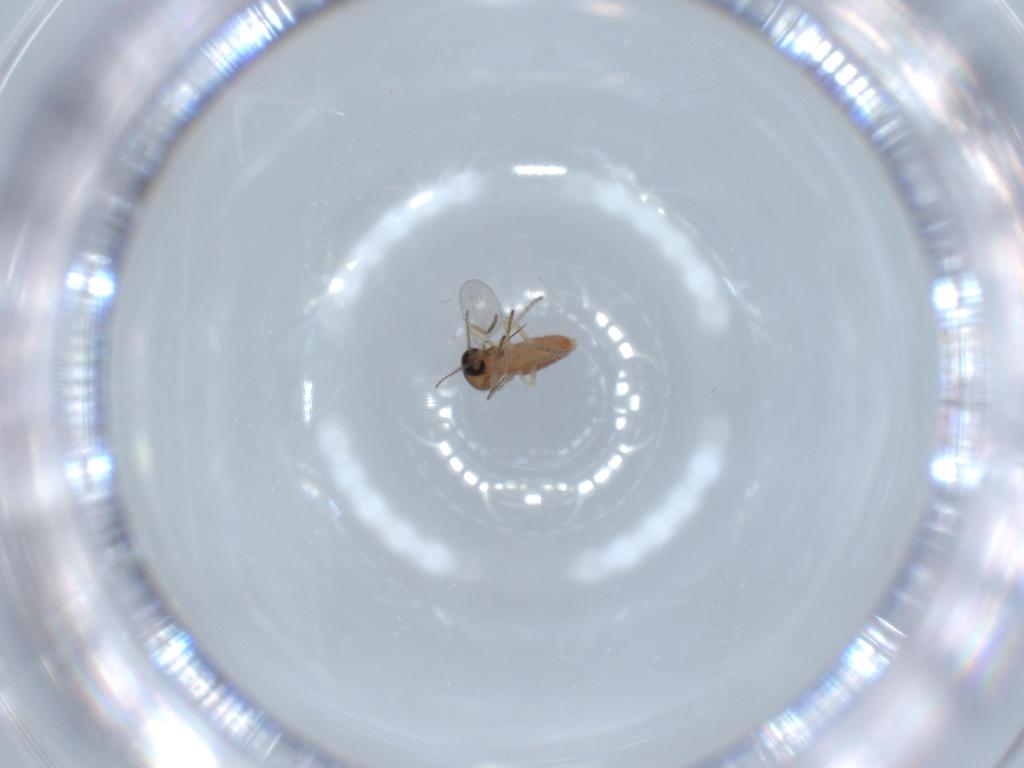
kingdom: Animalia
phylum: Arthropoda
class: Insecta
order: Diptera
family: Ceratopogonidae
